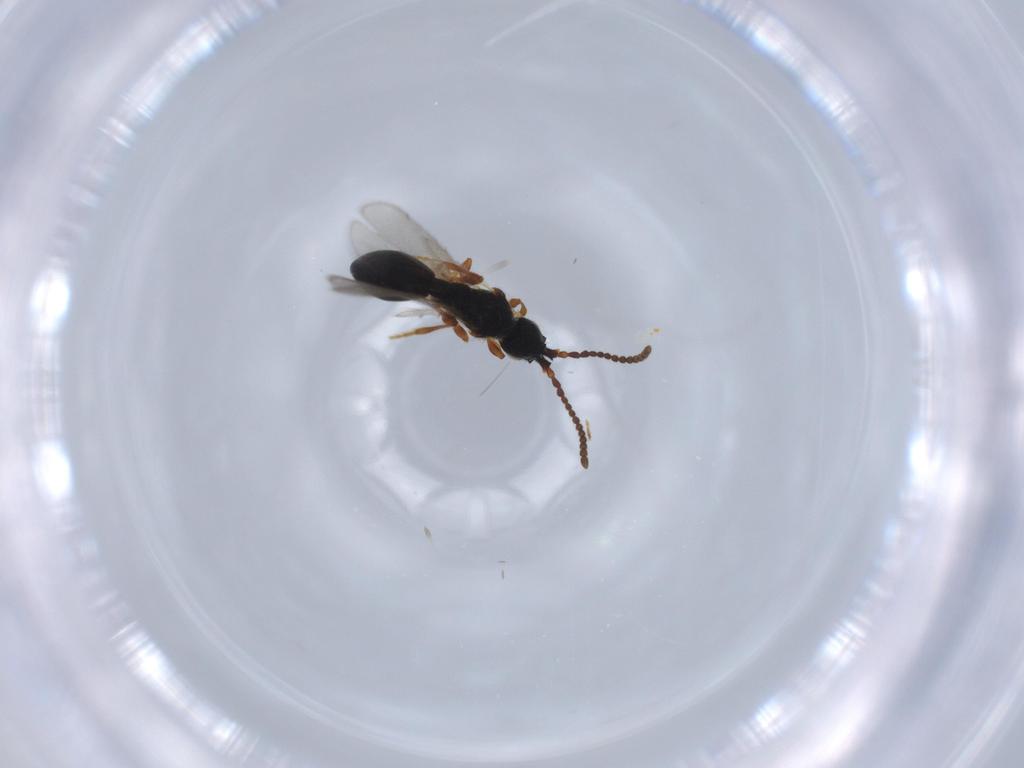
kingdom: Animalia
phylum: Arthropoda
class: Insecta
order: Hymenoptera
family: Diapriidae
